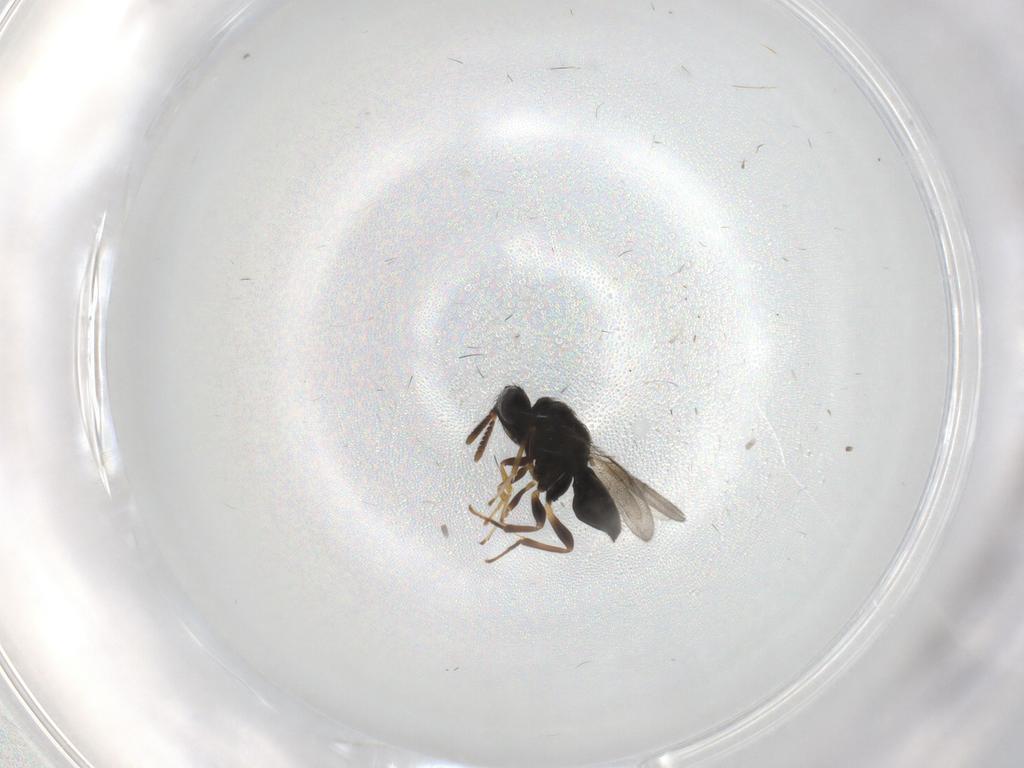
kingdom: Animalia
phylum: Arthropoda
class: Insecta
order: Hymenoptera
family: Pteromalidae
